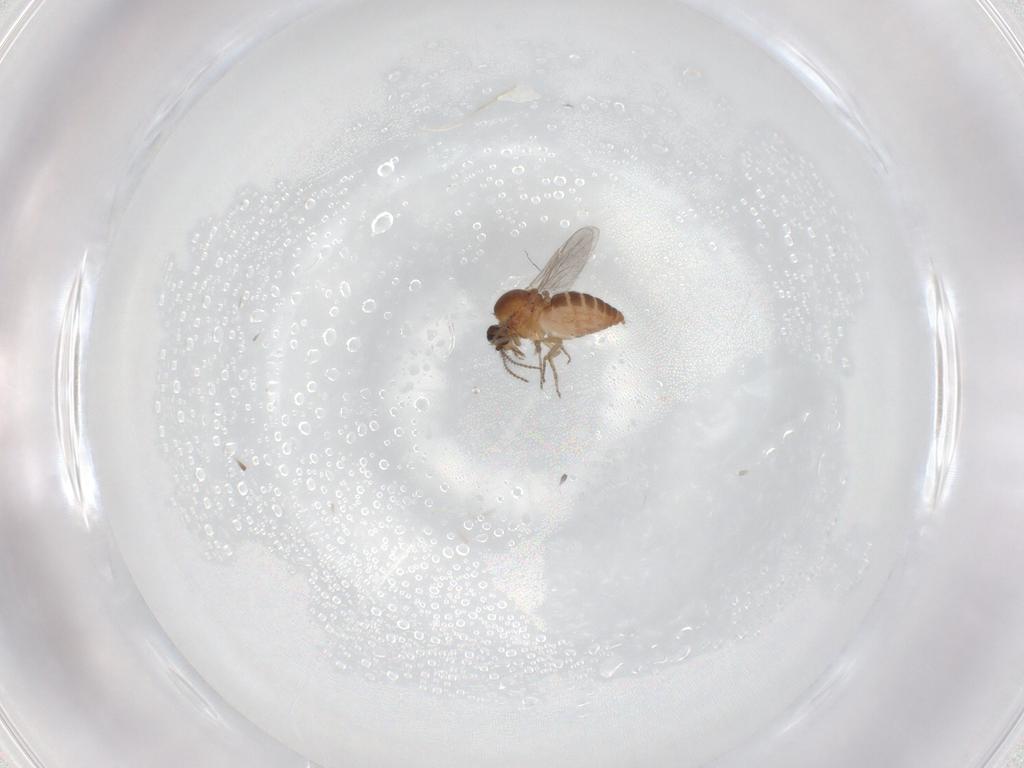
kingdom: Animalia
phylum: Arthropoda
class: Insecta
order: Diptera
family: Ceratopogonidae
